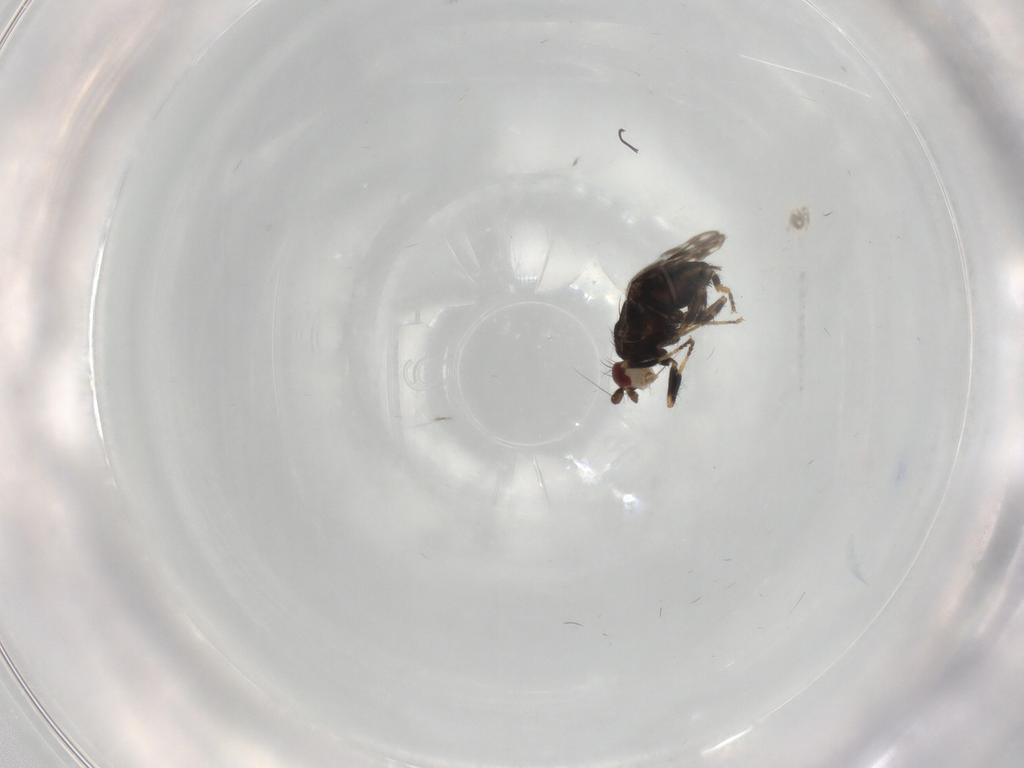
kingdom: Animalia
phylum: Arthropoda
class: Insecta
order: Diptera
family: Sphaeroceridae
